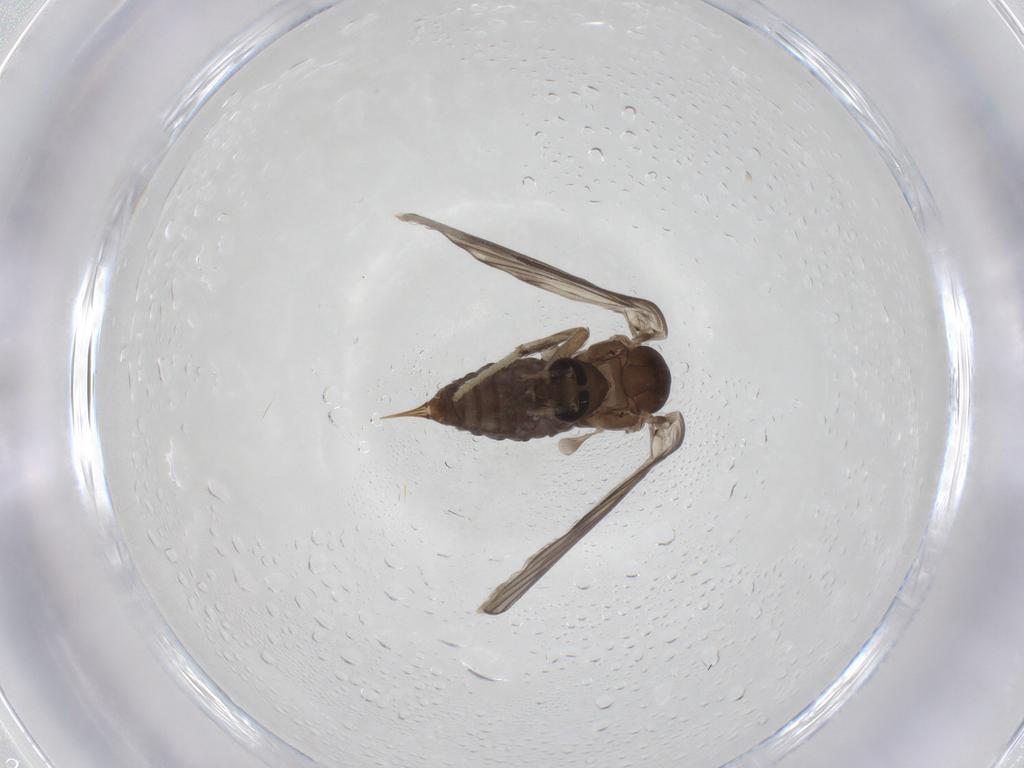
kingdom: Animalia
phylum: Arthropoda
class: Insecta
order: Diptera
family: Psychodidae
